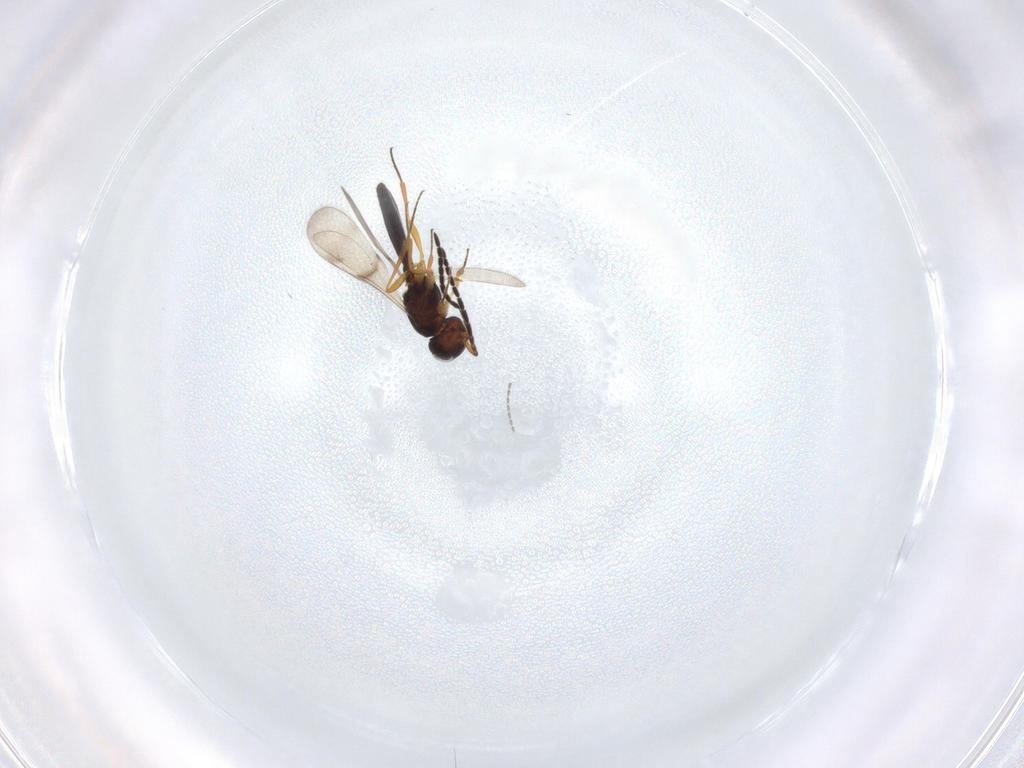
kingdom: Animalia
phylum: Arthropoda
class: Insecta
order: Hymenoptera
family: Scelionidae
